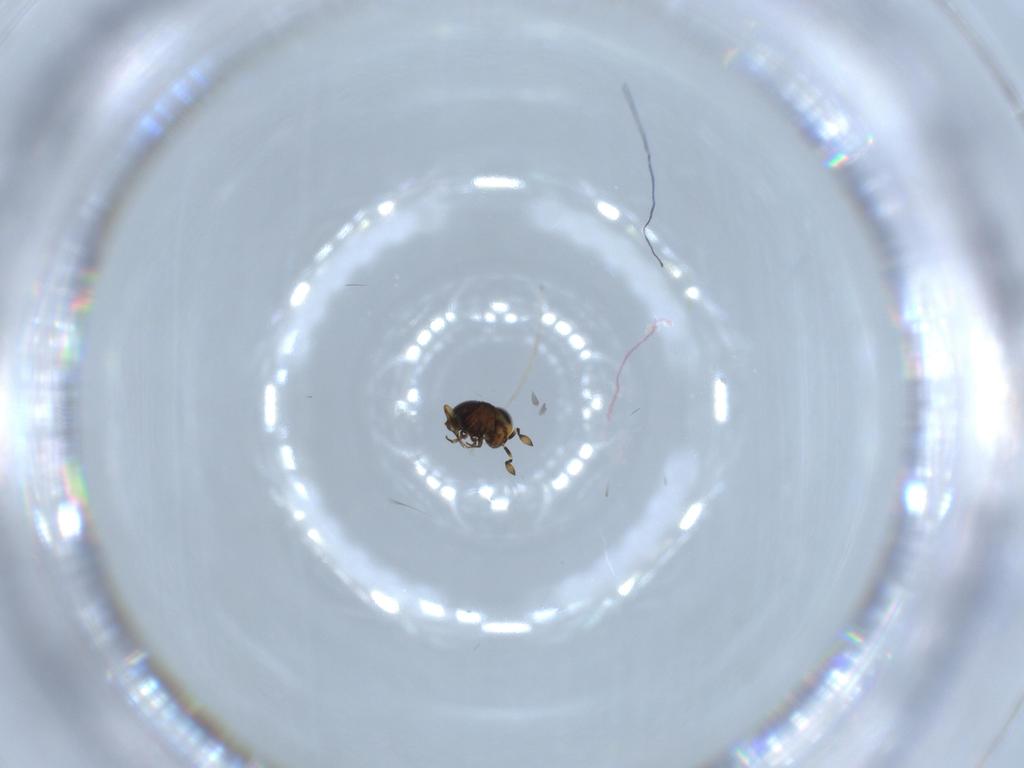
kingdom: Animalia
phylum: Arthropoda
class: Insecta
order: Hymenoptera
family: Scelionidae
